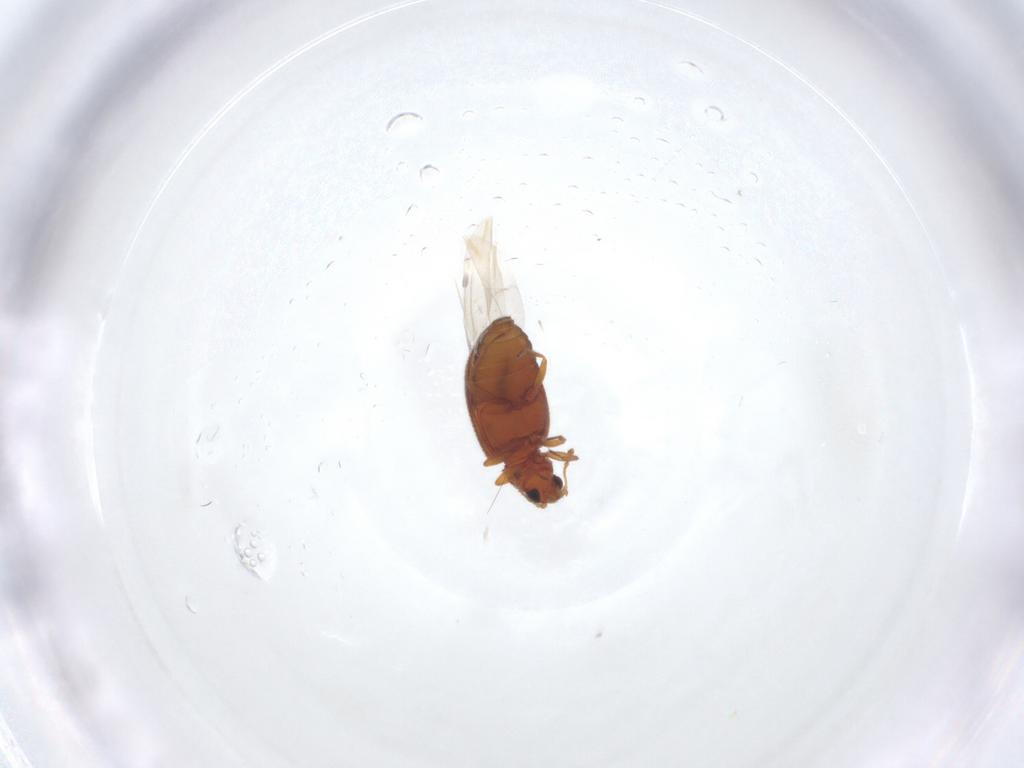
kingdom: Animalia
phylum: Arthropoda
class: Insecta
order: Coleoptera
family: Latridiidae
